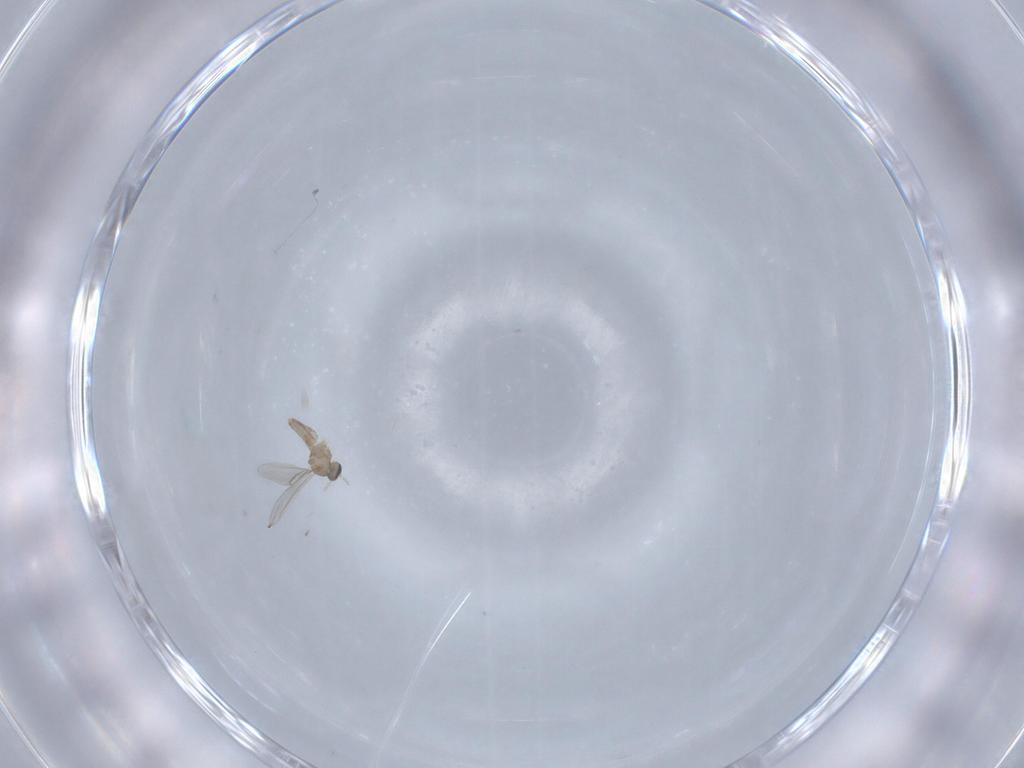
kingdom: Animalia
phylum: Arthropoda
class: Insecta
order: Diptera
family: Cecidomyiidae
